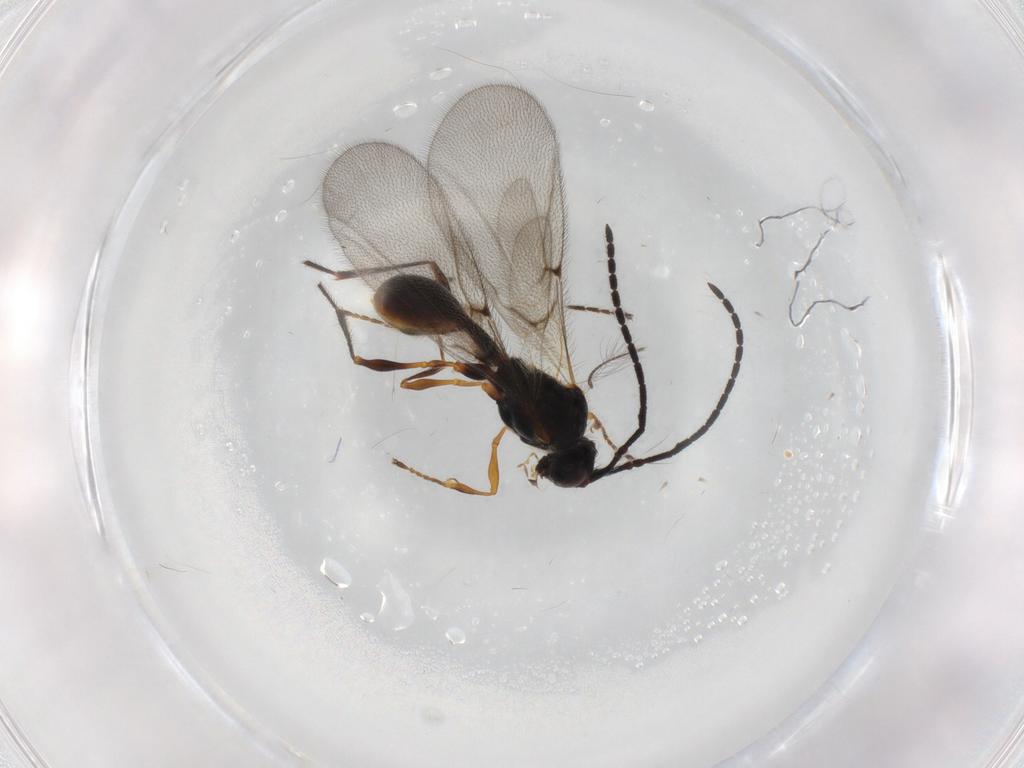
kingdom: Animalia
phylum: Arthropoda
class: Insecta
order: Hymenoptera
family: Diapriidae
